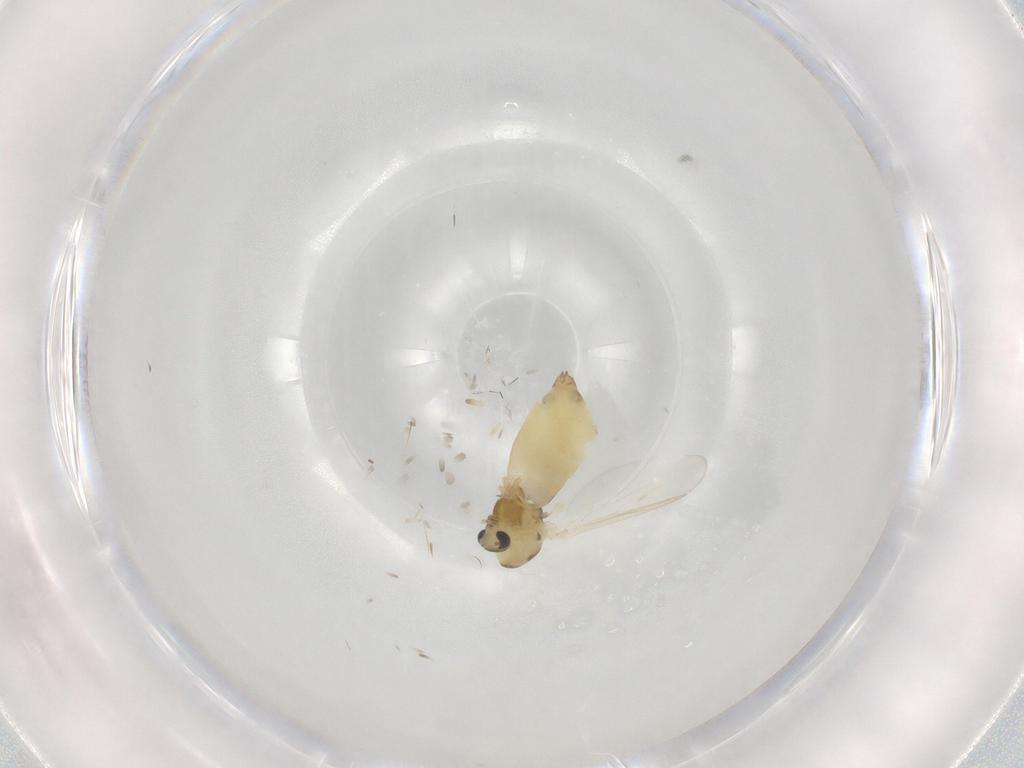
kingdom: Animalia
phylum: Arthropoda
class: Insecta
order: Diptera
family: Chironomidae
